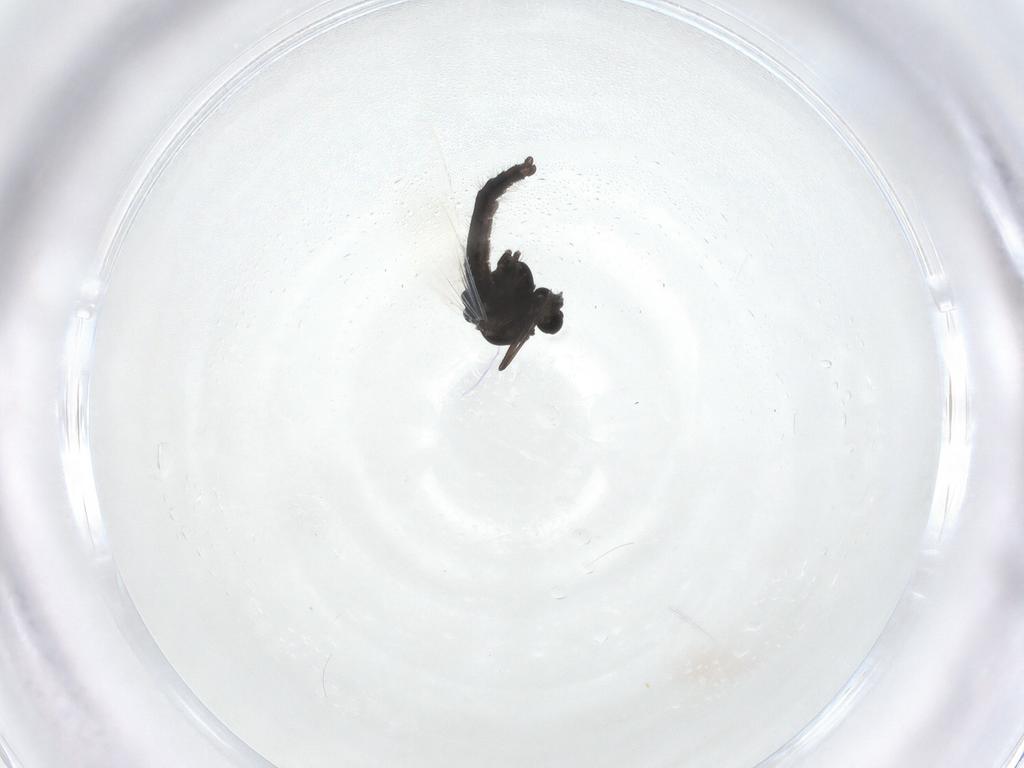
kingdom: Animalia
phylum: Arthropoda
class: Insecta
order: Diptera
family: Chironomidae
